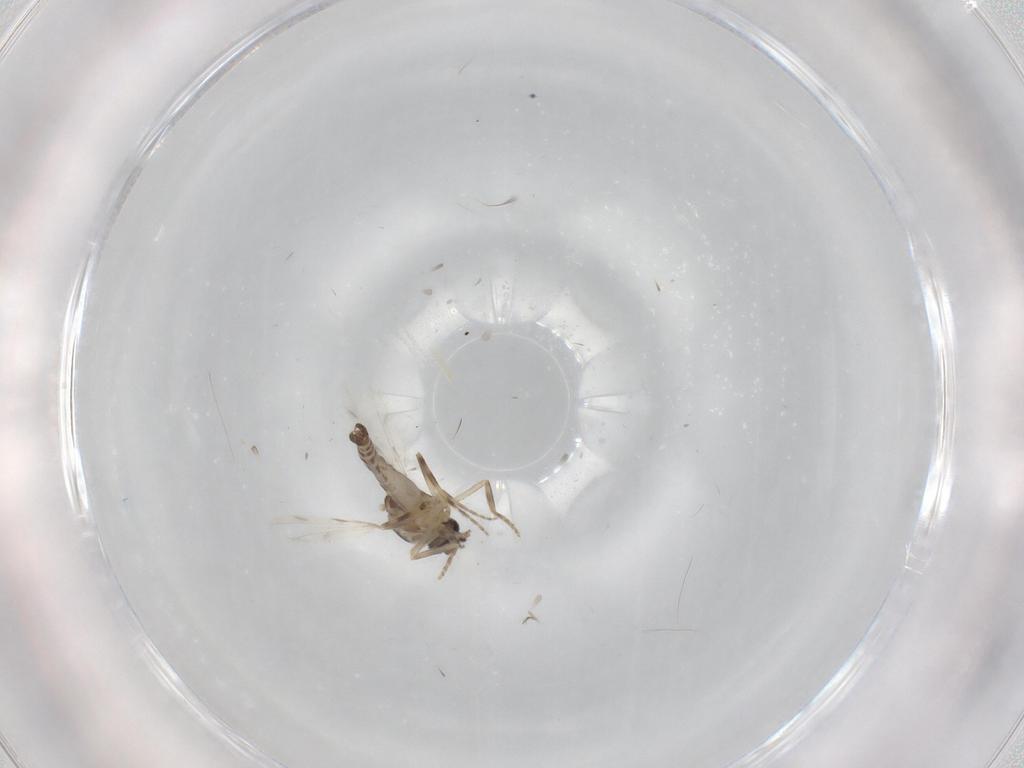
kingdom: Animalia
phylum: Arthropoda
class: Insecta
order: Diptera
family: Ceratopogonidae
